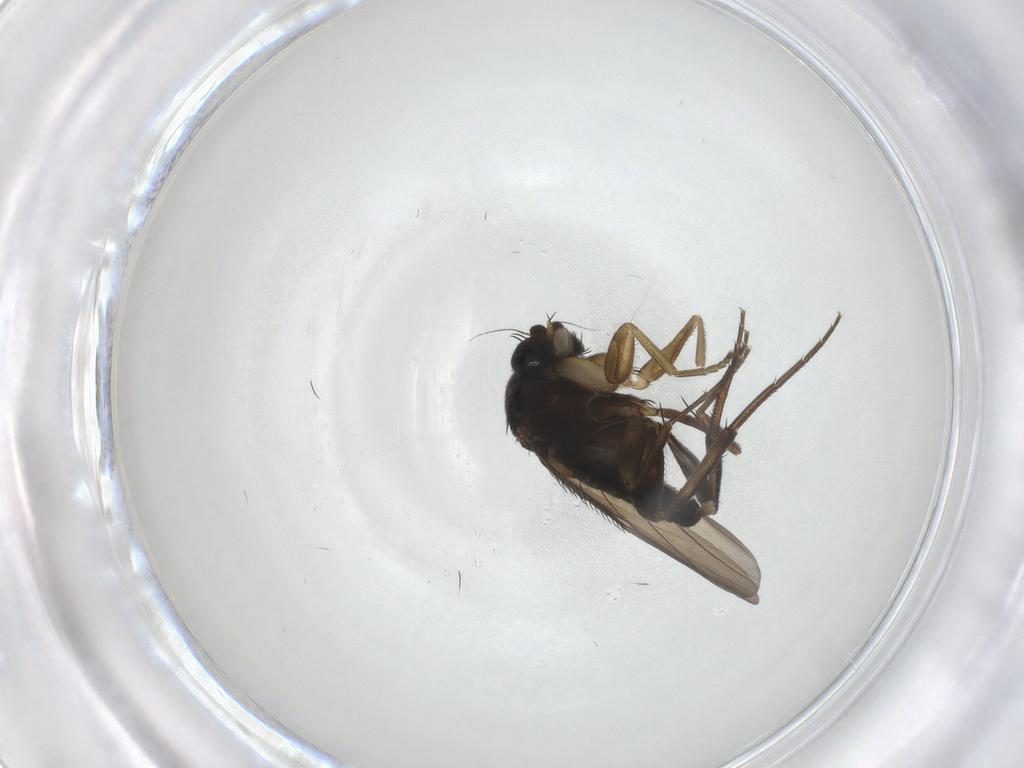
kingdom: Animalia
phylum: Arthropoda
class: Insecta
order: Diptera
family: Phoridae
